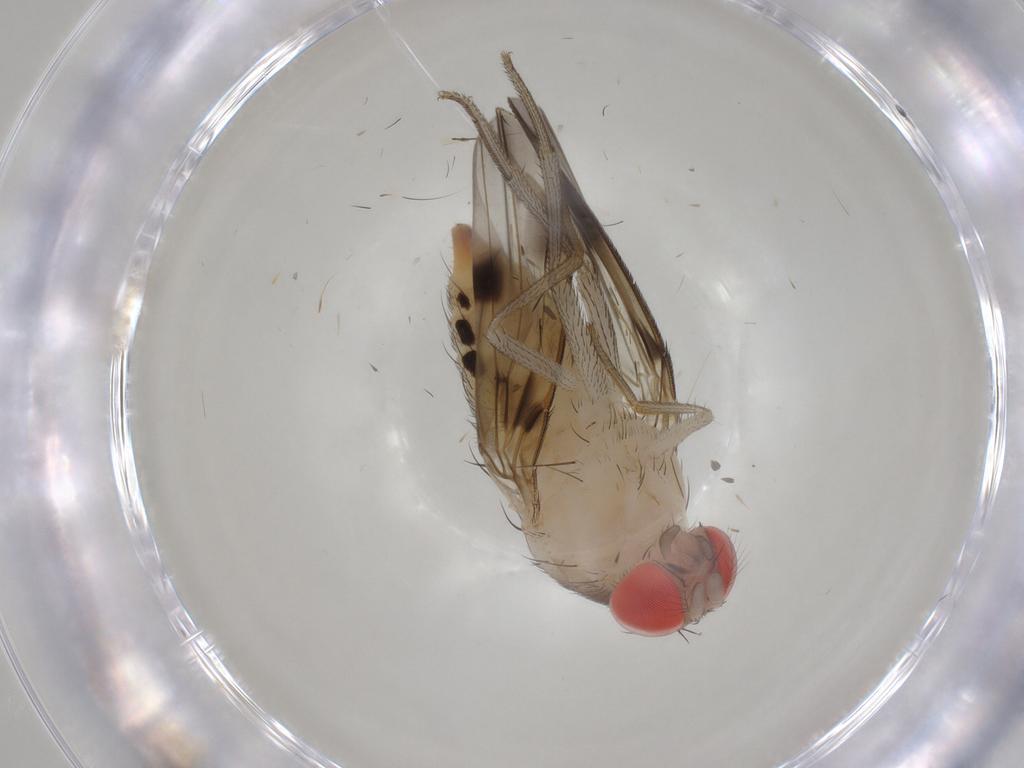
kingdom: Animalia
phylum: Arthropoda
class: Insecta
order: Diptera
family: Drosophilidae
